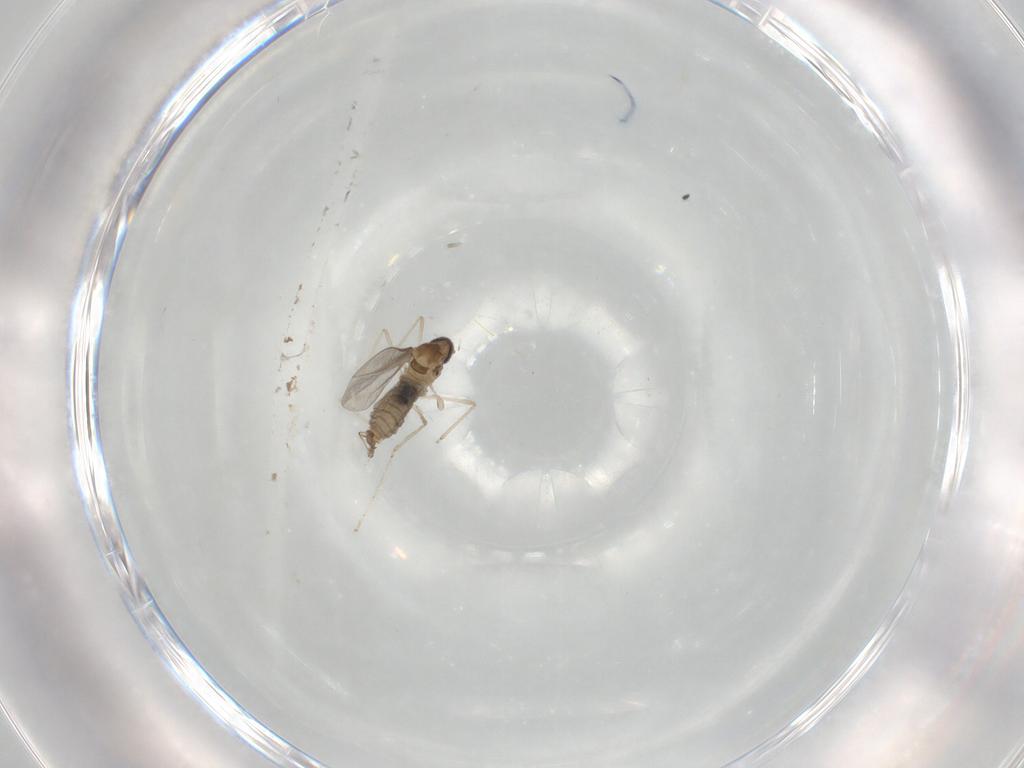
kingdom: Animalia
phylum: Arthropoda
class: Insecta
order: Diptera
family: Cecidomyiidae
